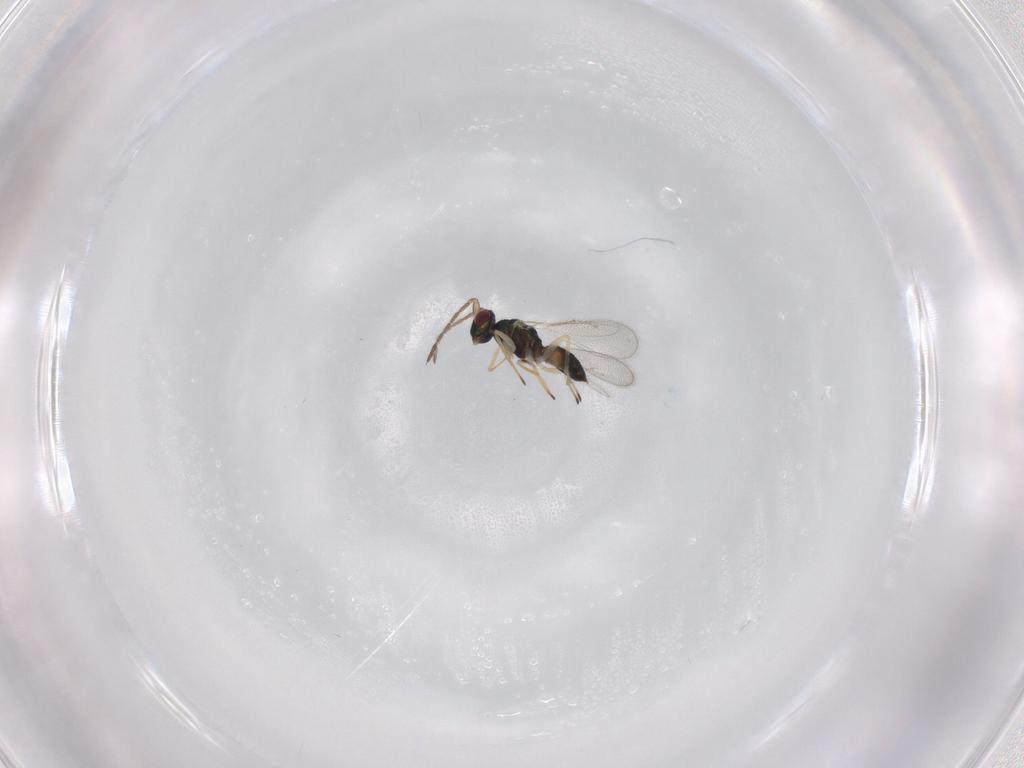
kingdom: Animalia
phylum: Arthropoda
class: Insecta
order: Hymenoptera
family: Eulophidae
